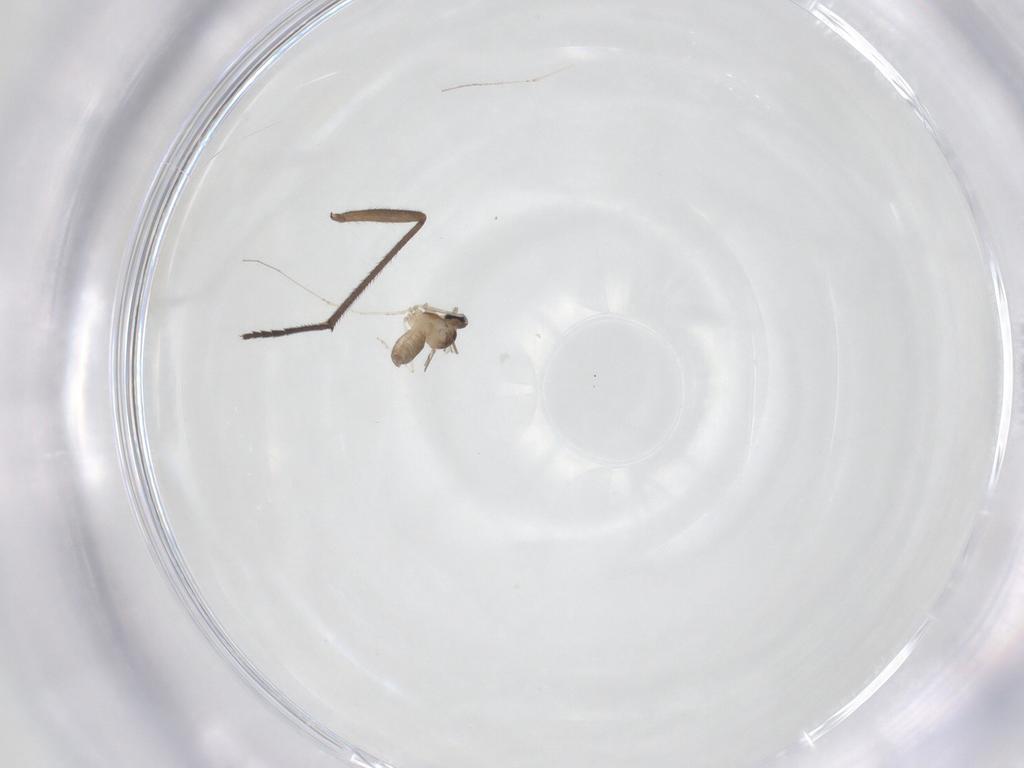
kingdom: Animalia
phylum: Arthropoda
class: Insecta
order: Diptera
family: Cecidomyiidae
